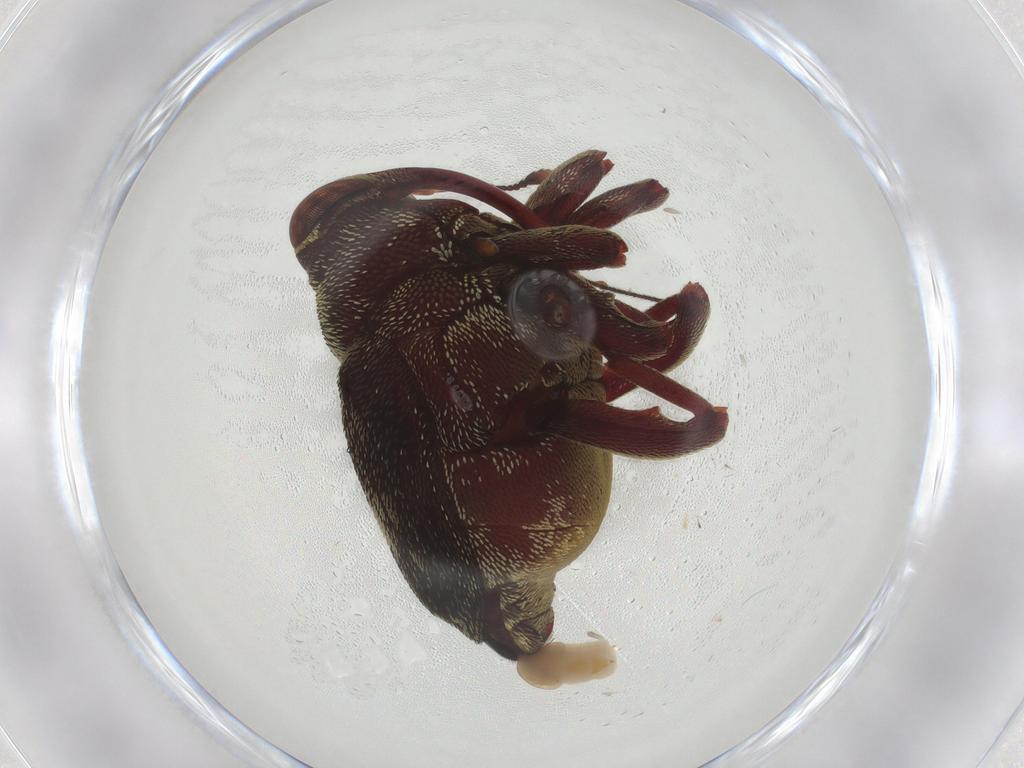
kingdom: Animalia
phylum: Arthropoda
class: Insecta
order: Coleoptera
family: Curculionidae
